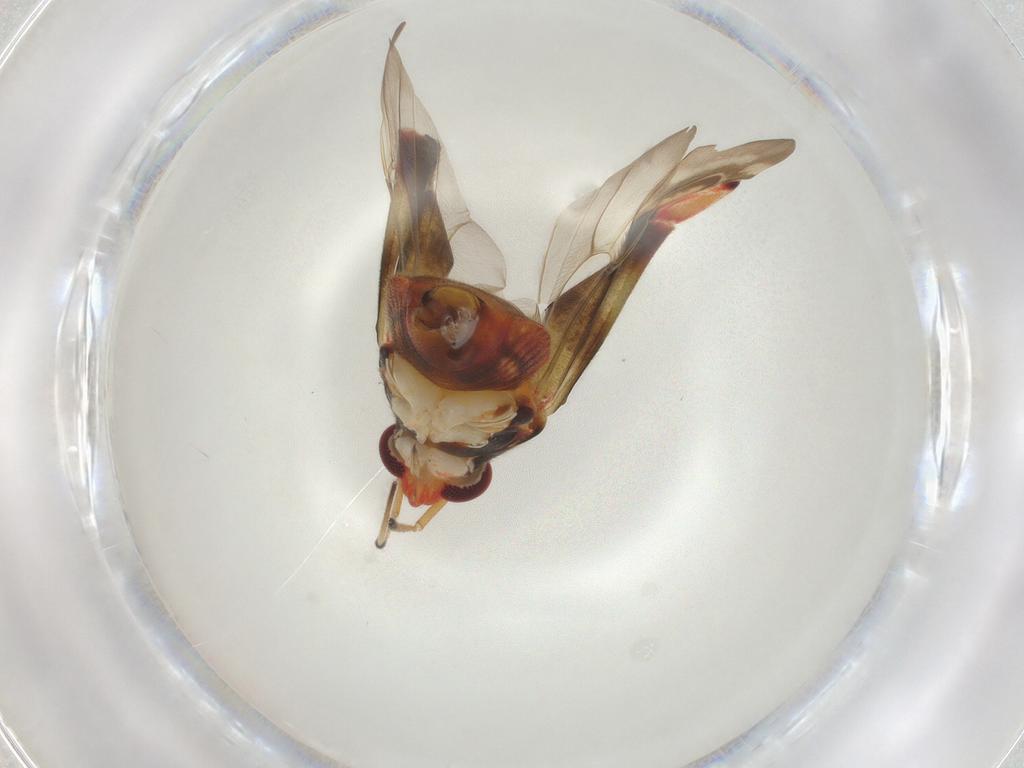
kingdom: Animalia
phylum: Arthropoda
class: Insecta
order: Hemiptera
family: Miridae
